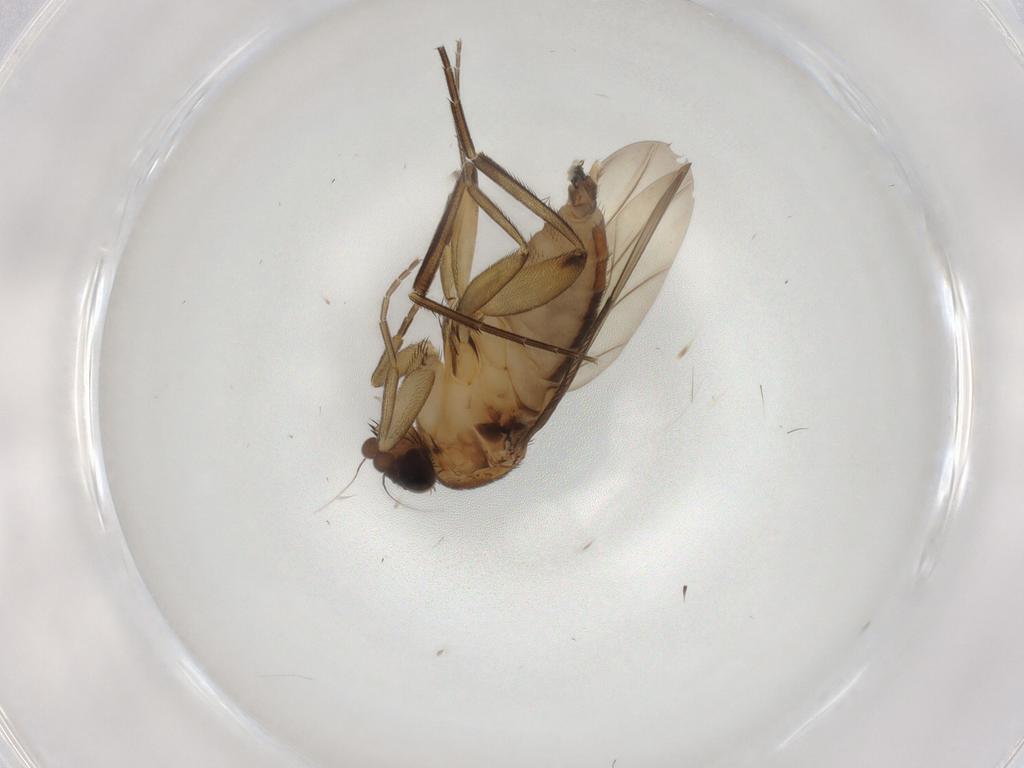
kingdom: Animalia
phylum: Arthropoda
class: Insecta
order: Diptera
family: Phoridae
